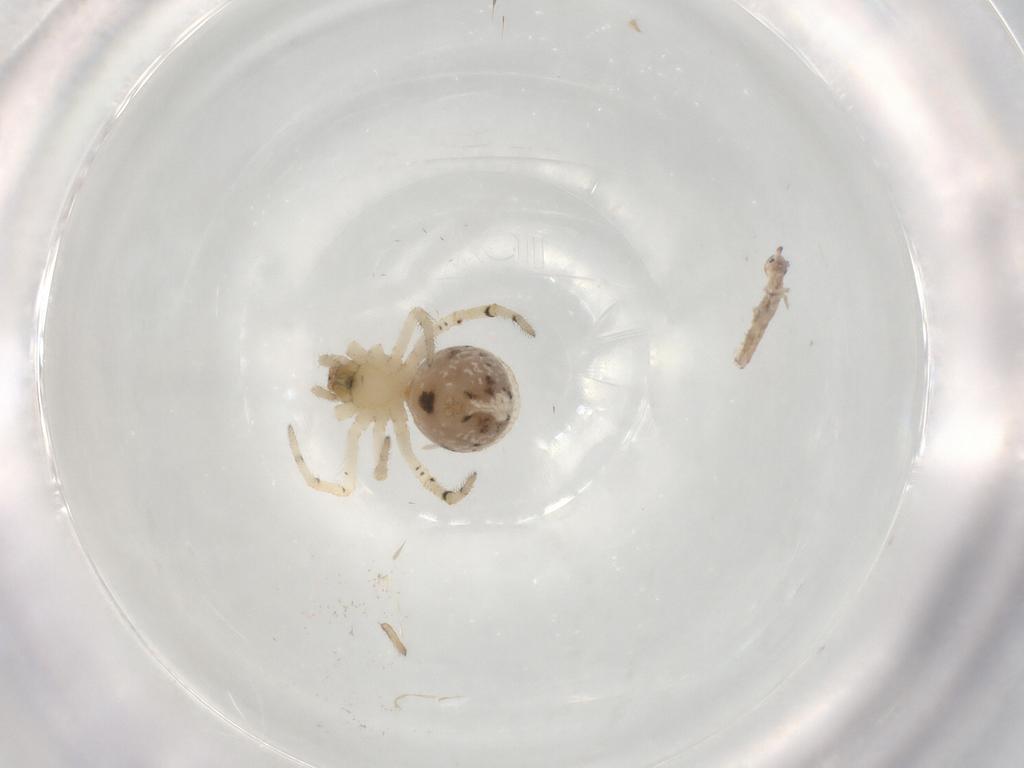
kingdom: Animalia
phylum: Arthropoda
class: Arachnida
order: Araneae
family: Theridiidae
